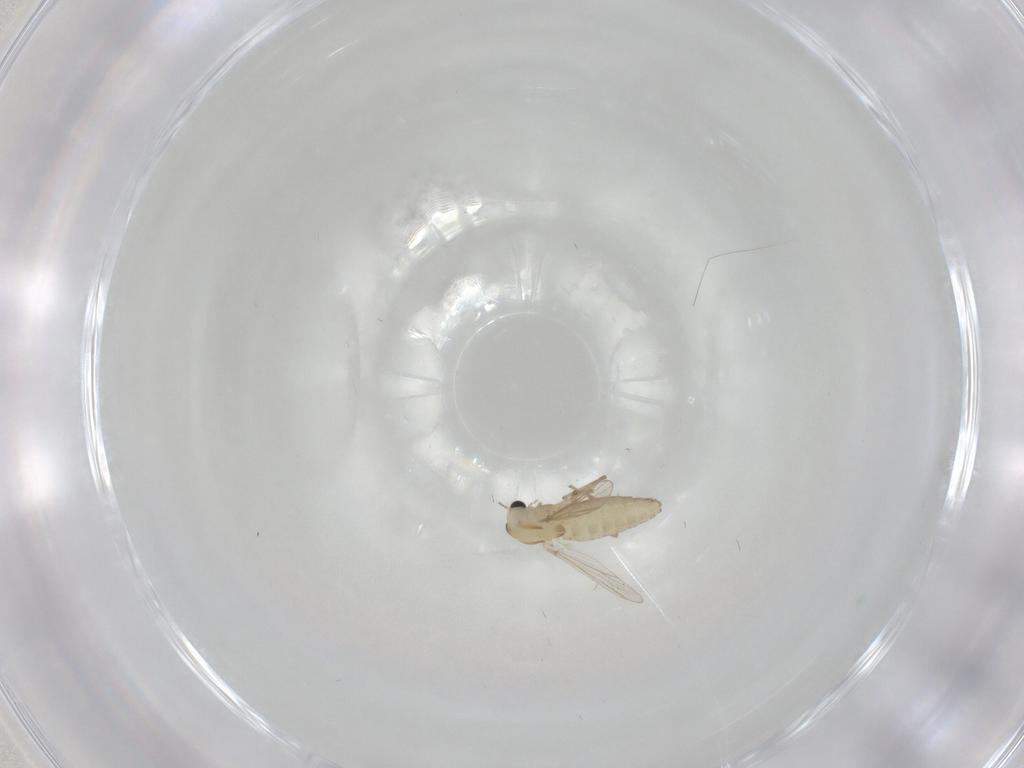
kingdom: Animalia
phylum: Arthropoda
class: Insecta
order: Diptera
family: Chironomidae
